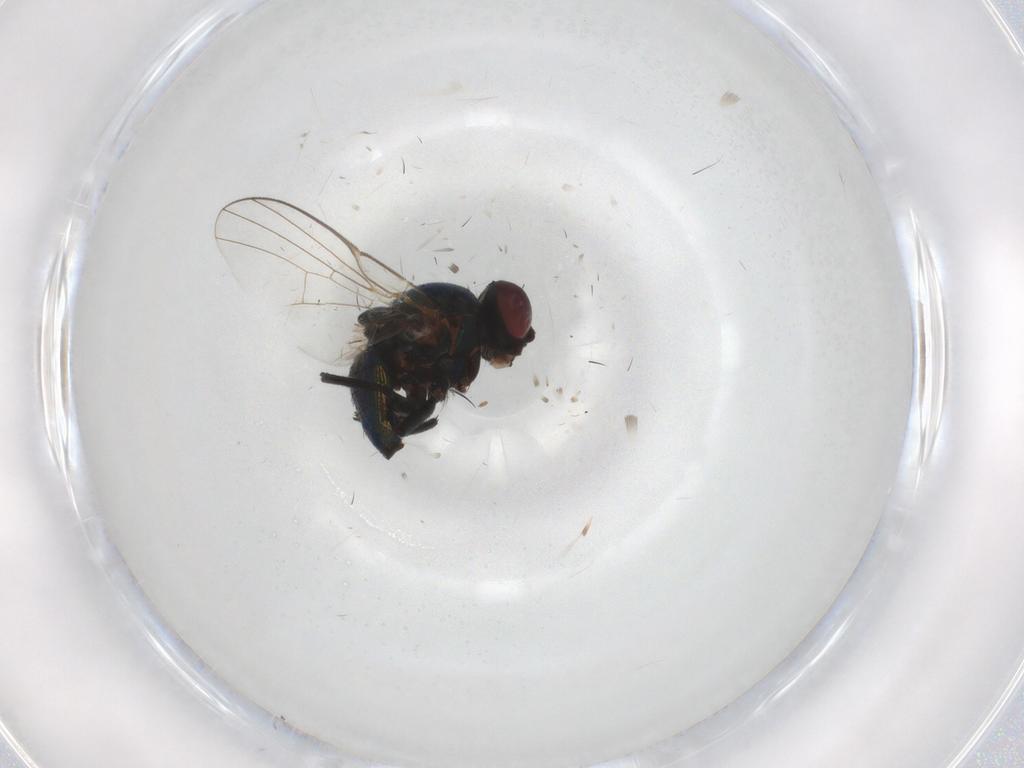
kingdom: Animalia
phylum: Arthropoda
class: Insecta
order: Diptera
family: Agromyzidae
